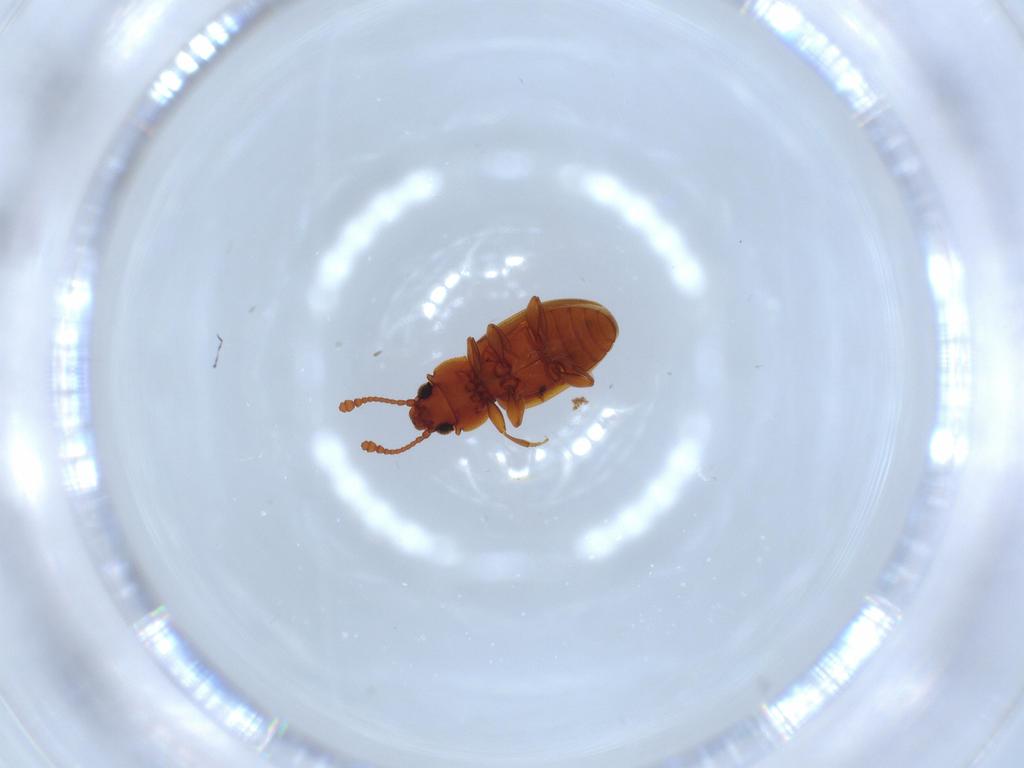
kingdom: Animalia
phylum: Arthropoda
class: Insecta
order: Coleoptera
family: Silvanidae
